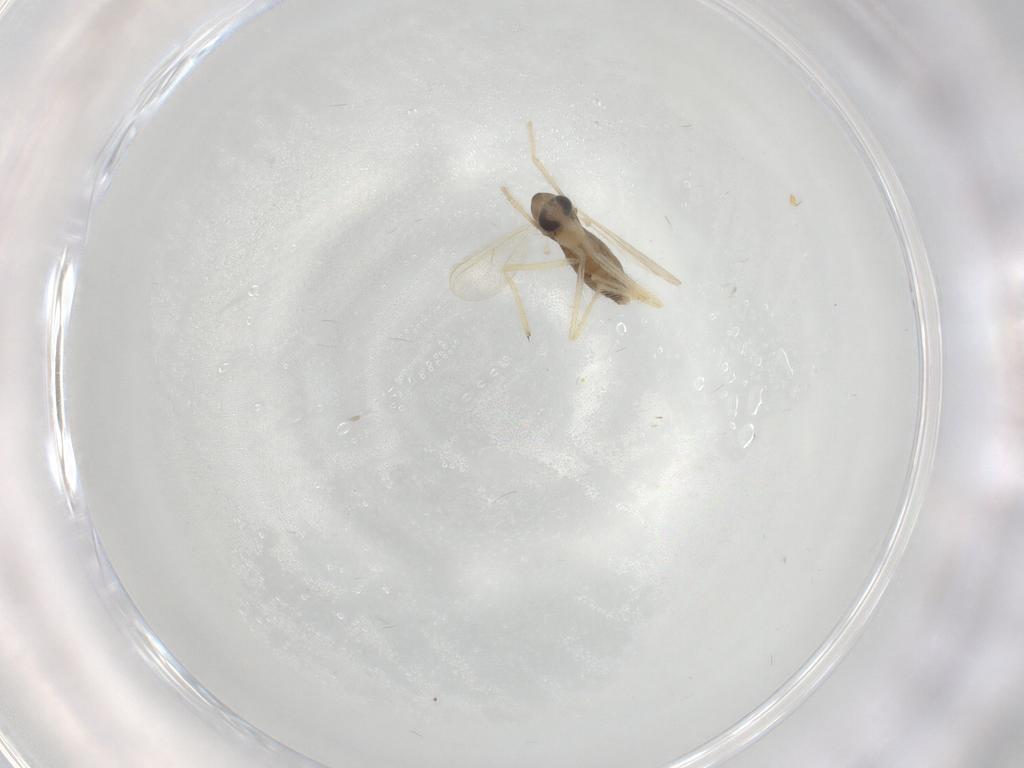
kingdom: Animalia
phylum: Arthropoda
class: Insecta
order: Diptera
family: Chironomidae
